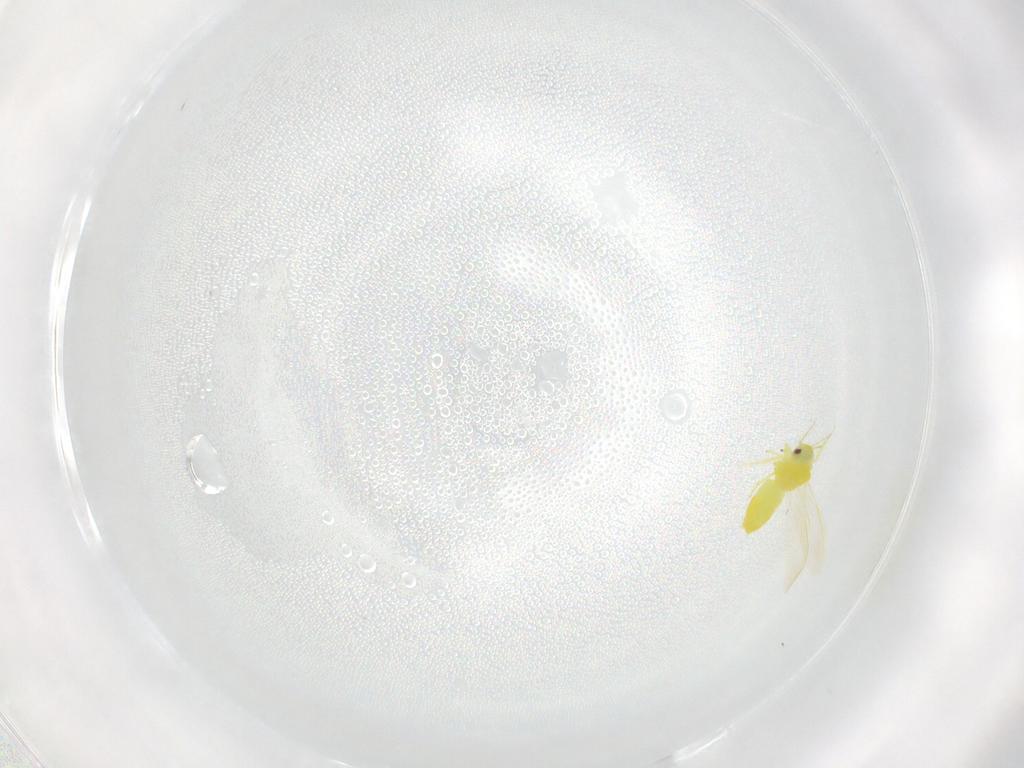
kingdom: Animalia
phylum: Arthropoda
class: Insecta
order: Hemiptera
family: Aleyrodidae
